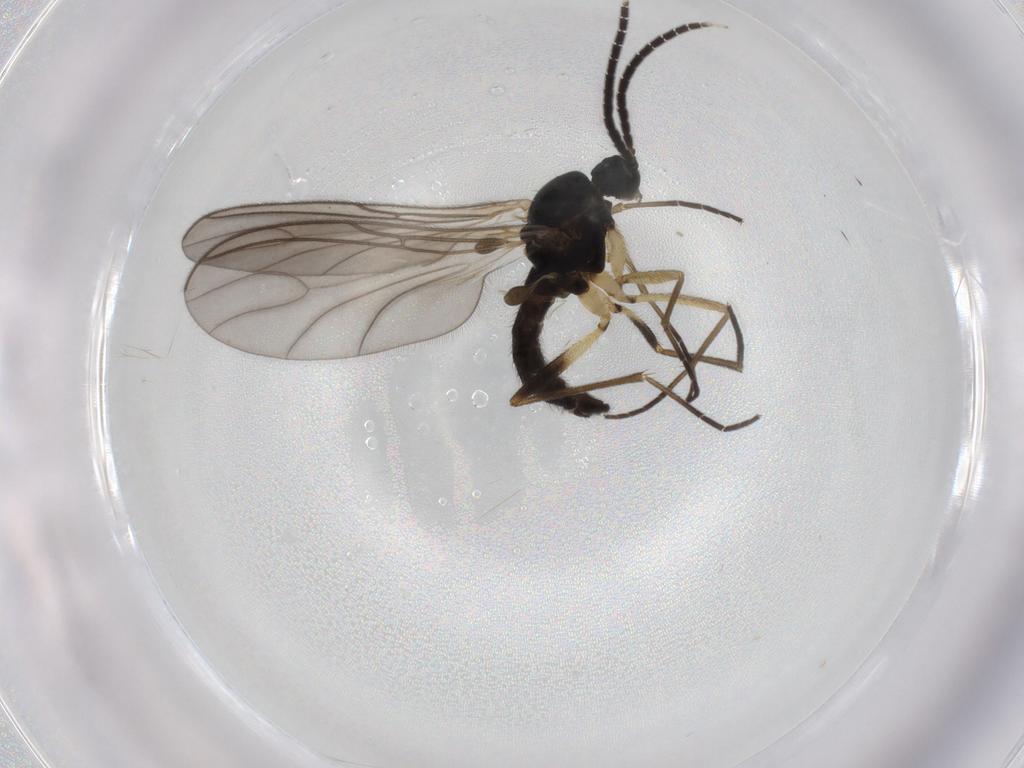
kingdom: Animalia
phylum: Arthropoda
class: Insecta
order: Diptera
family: Sciaridae
